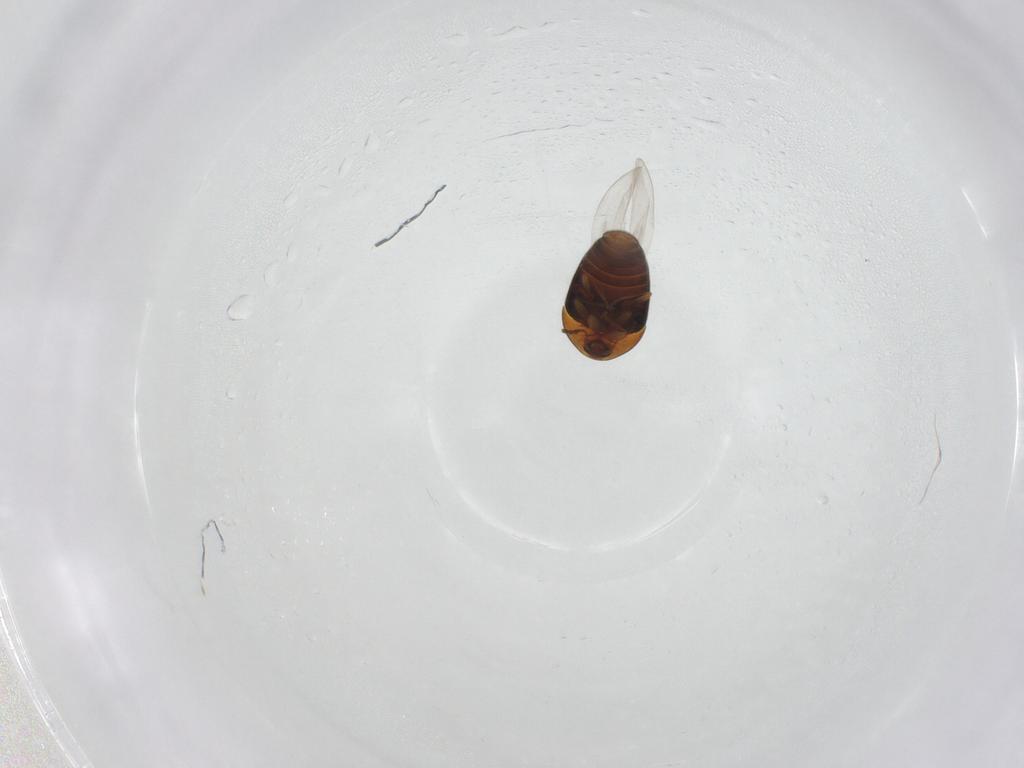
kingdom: Animalia
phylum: Arthropoda
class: Insecta
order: Coleoptera
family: Corylophidae
